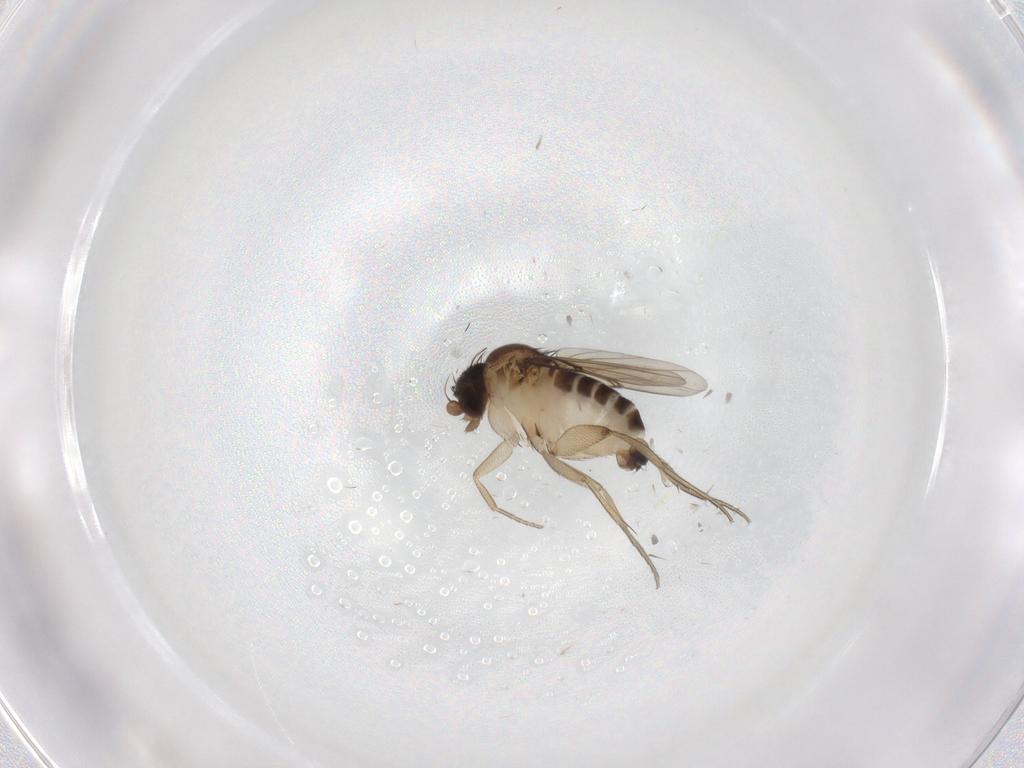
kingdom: Animalia
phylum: Arthropoda
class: Insecta
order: Diptera
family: Chironomidae
